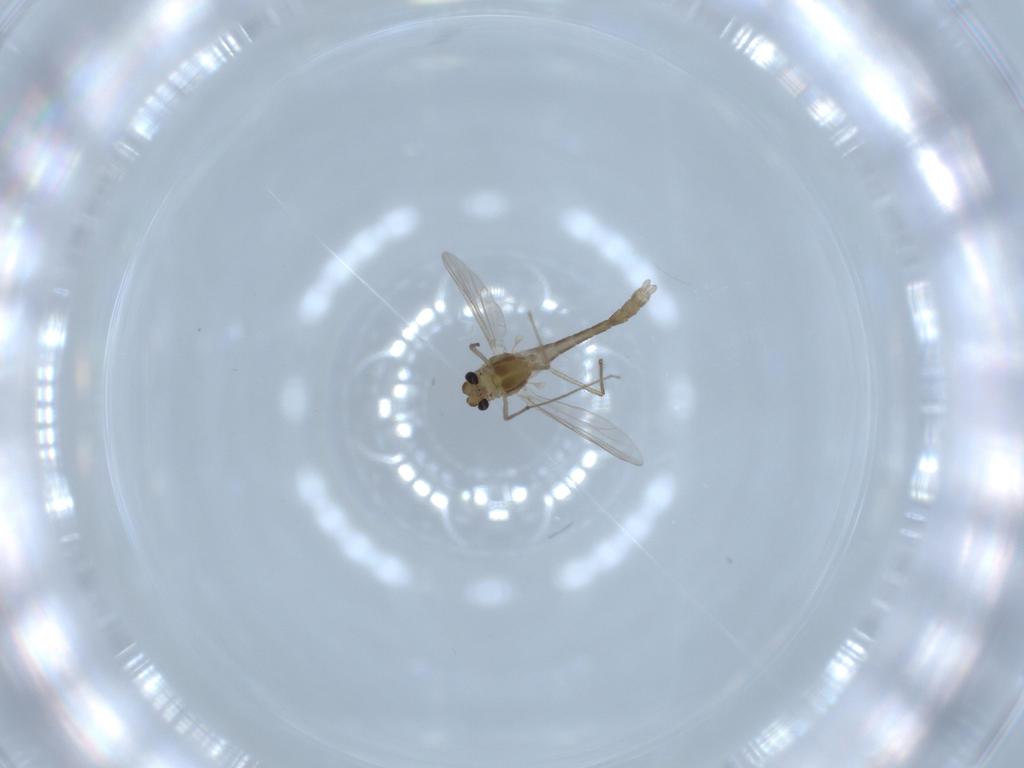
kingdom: Animalia
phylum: Arthropoda
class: Insecta
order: Diptera
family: Chironomidae
